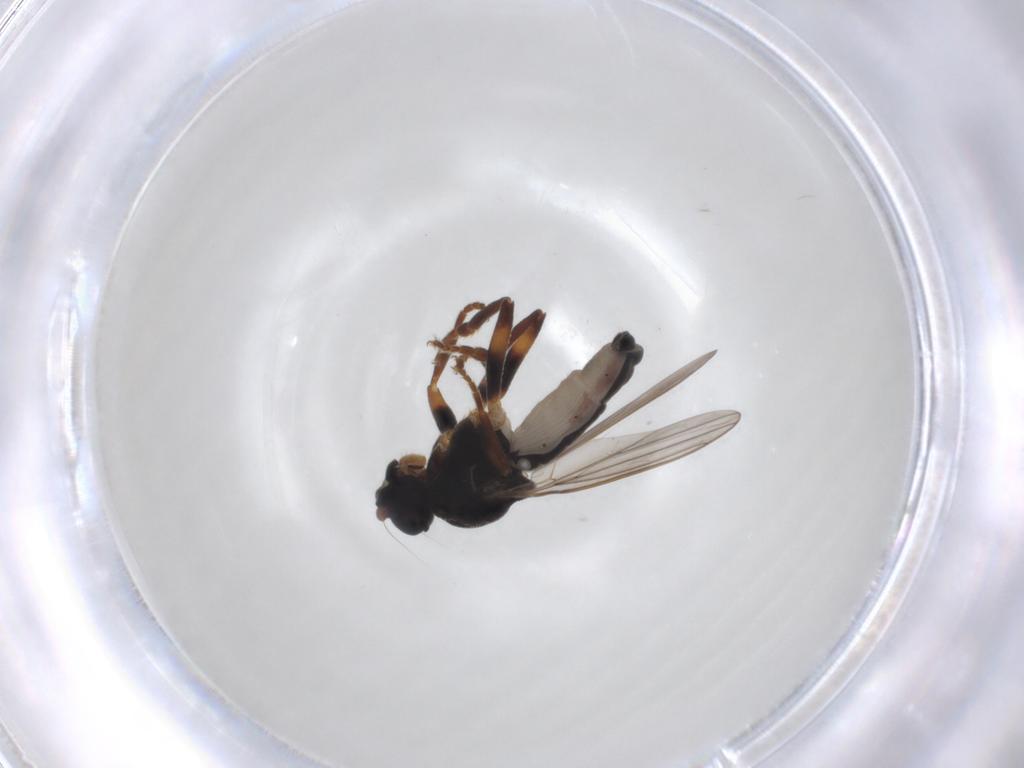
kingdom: Animalia
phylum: Arthropoda
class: Insecta
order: Diptera
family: Sphaeroceridae
